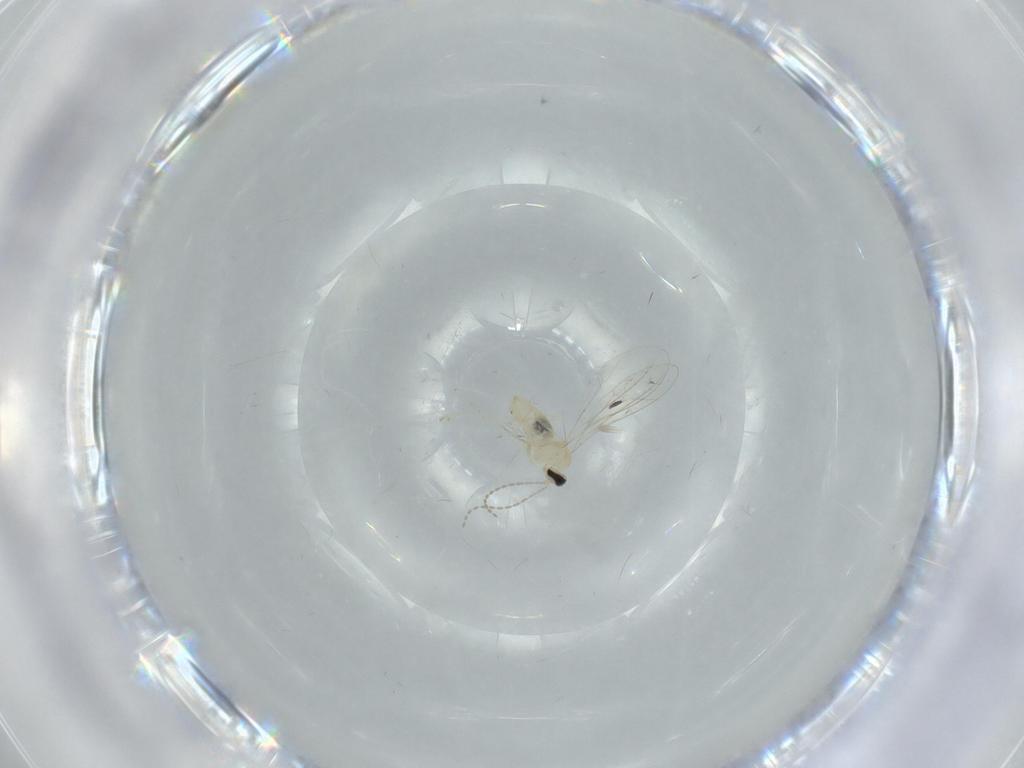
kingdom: Animalia
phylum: Arthropoda
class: Insecta
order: Diptera
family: Cecidomyiidae
